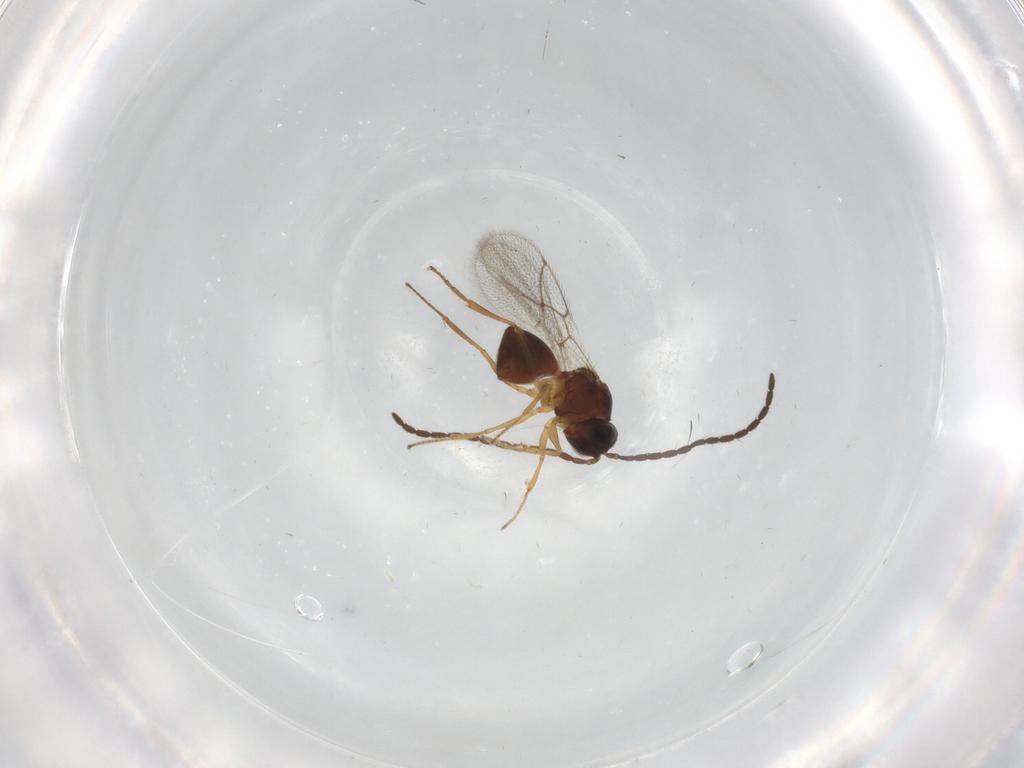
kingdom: Animalia
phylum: Arthropoda
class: Insecta
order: Hymenoptera
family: Figitidae
